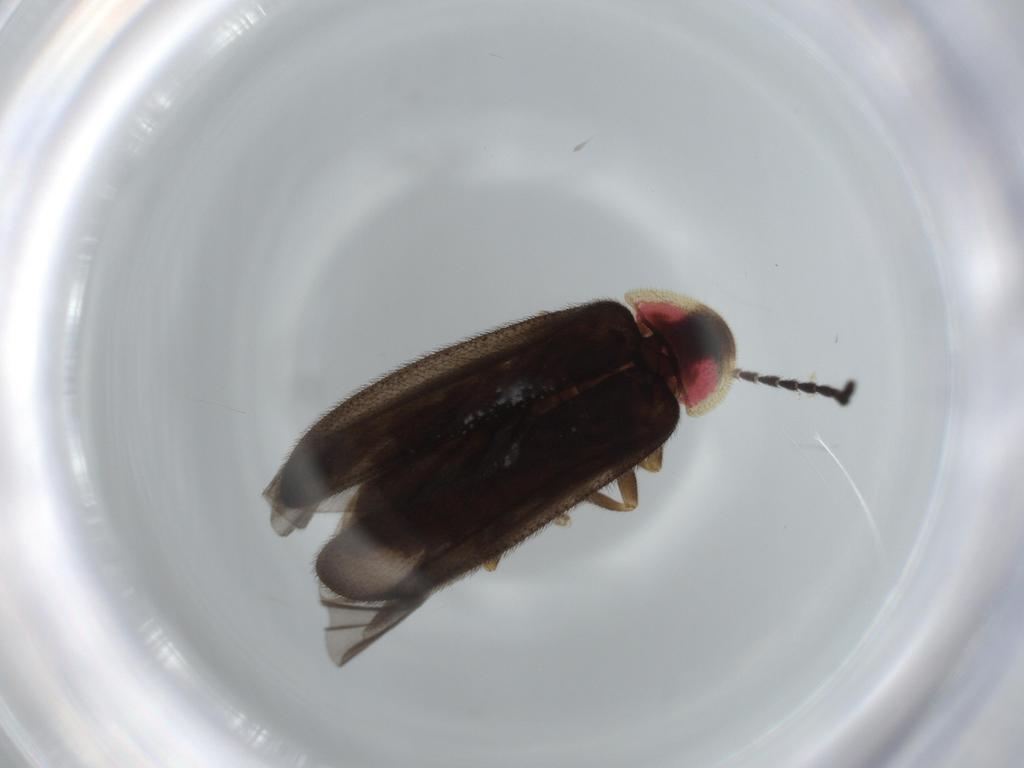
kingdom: Animalia
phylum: Arthropoda
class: Insecta
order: Coleoptera
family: Lampyridae
